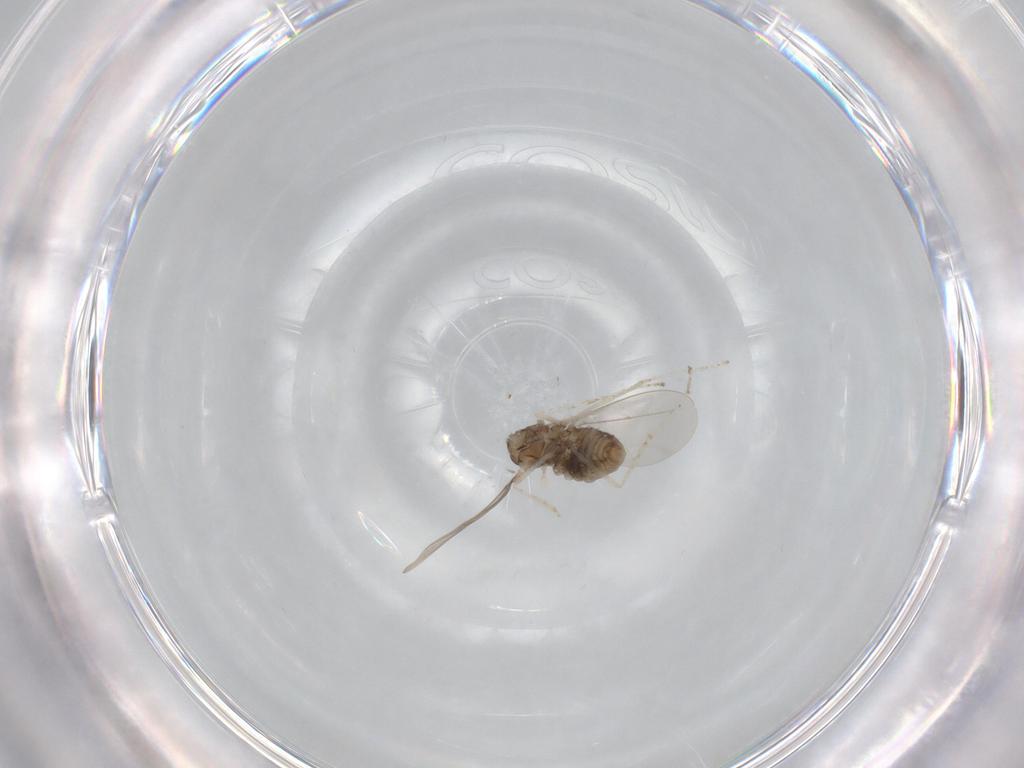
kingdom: Animalia
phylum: Arthropoda
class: Insecta
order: Diptera
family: Cecidomyiidae
